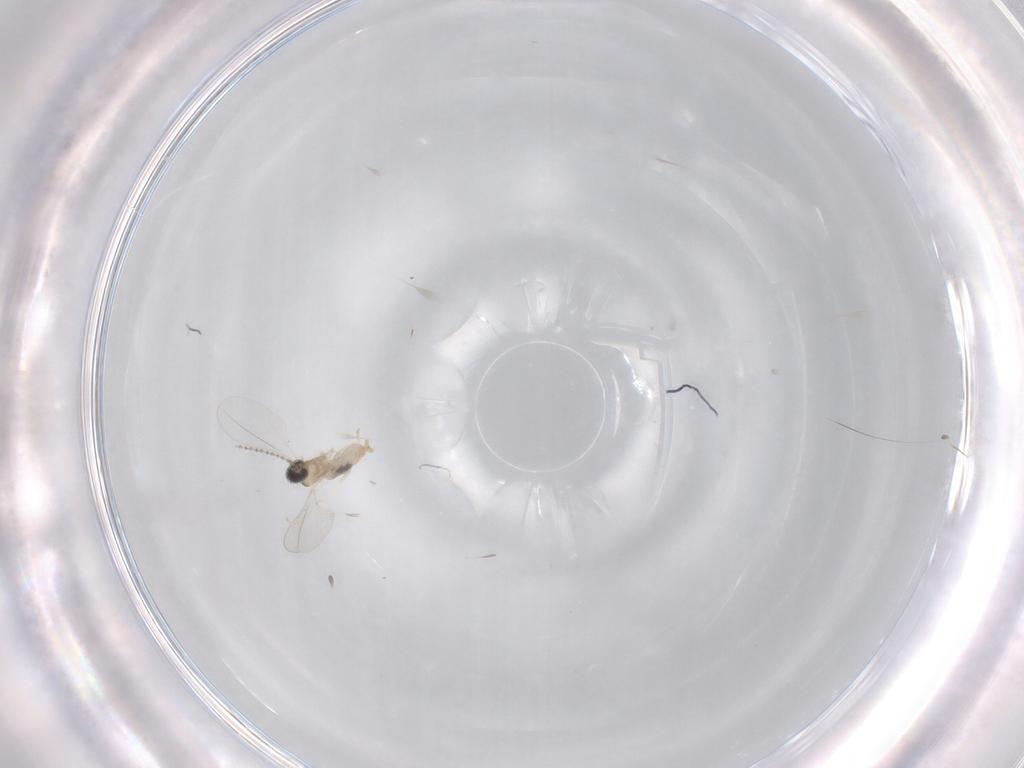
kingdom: Animalia
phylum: Arthropoda
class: Insecta
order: Diptera
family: Cecidomyiidae
